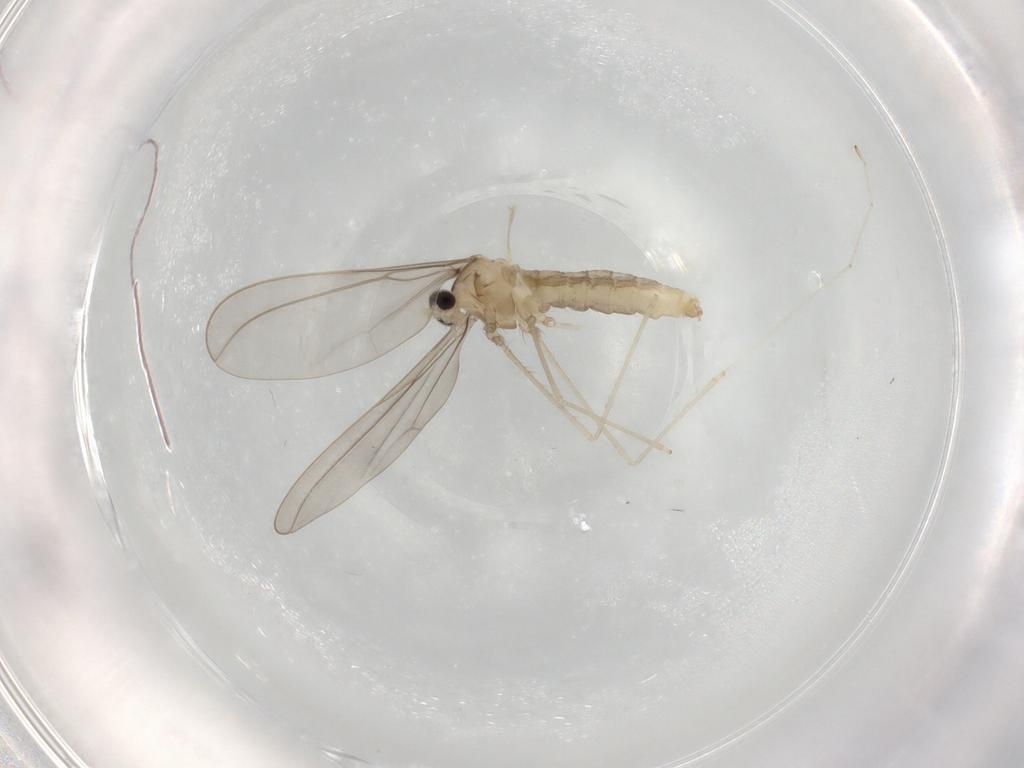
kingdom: Animalia
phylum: Arthropoda
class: Insecta
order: Diptera
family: Cecidomyiidae
